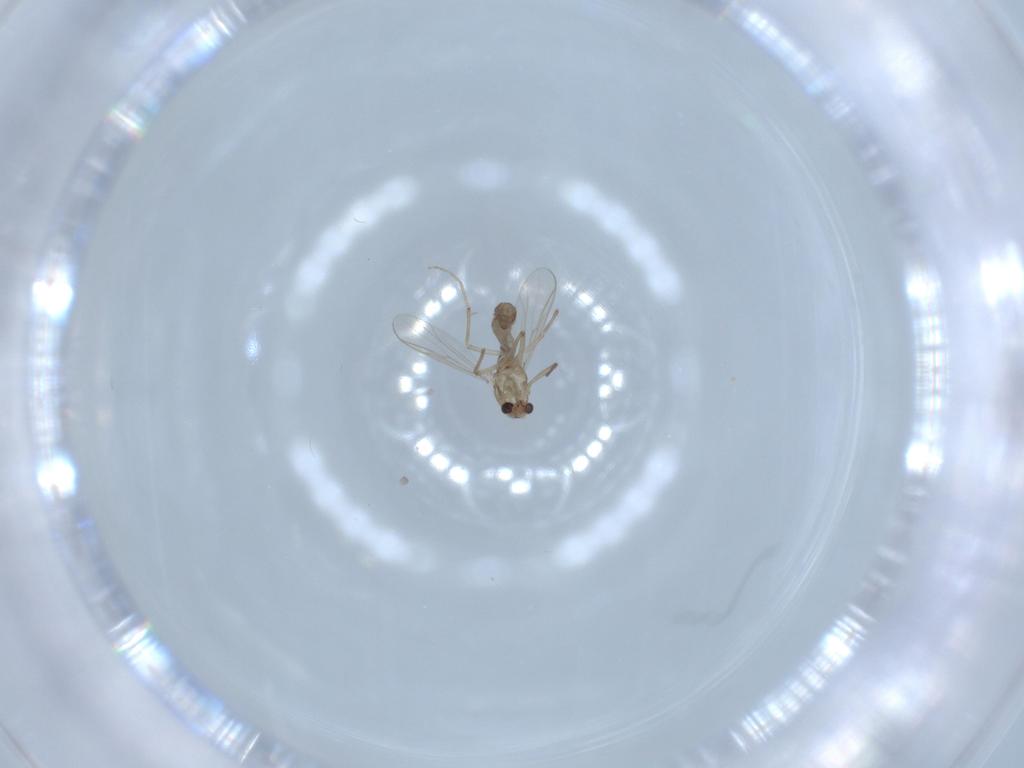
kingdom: Animalia
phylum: Arthropoda
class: Insecta
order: Diptera
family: Chironomidae
